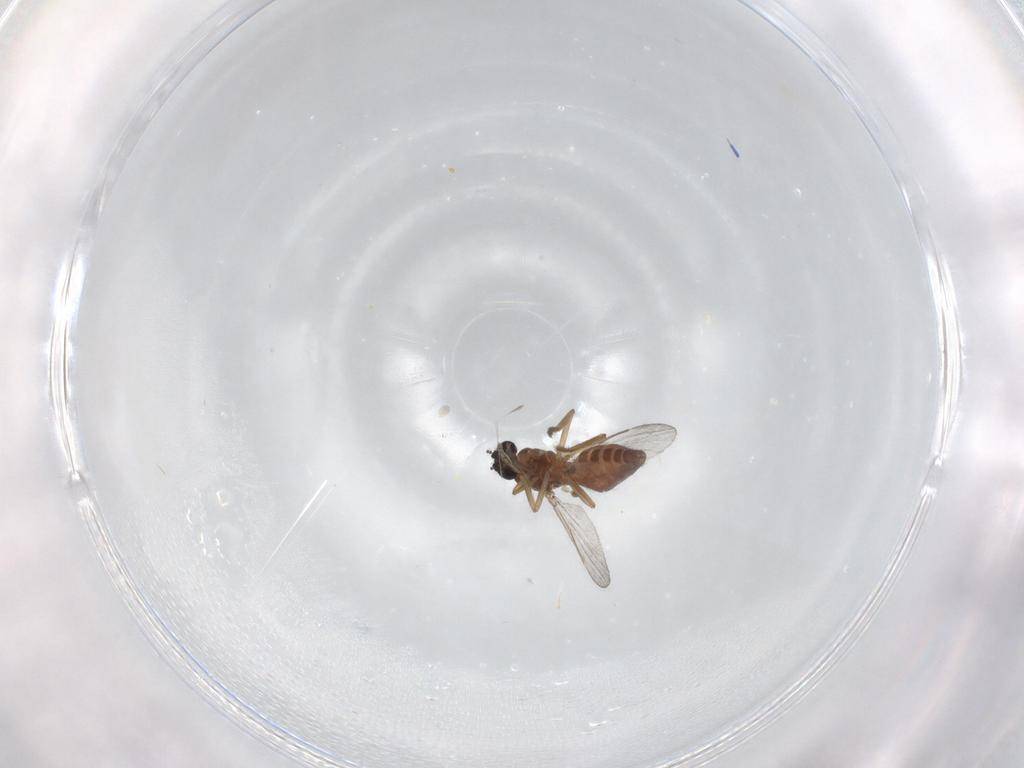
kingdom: Animalia
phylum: Arthropoda
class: Insecta
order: Diptera
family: Ceratopogonidae
